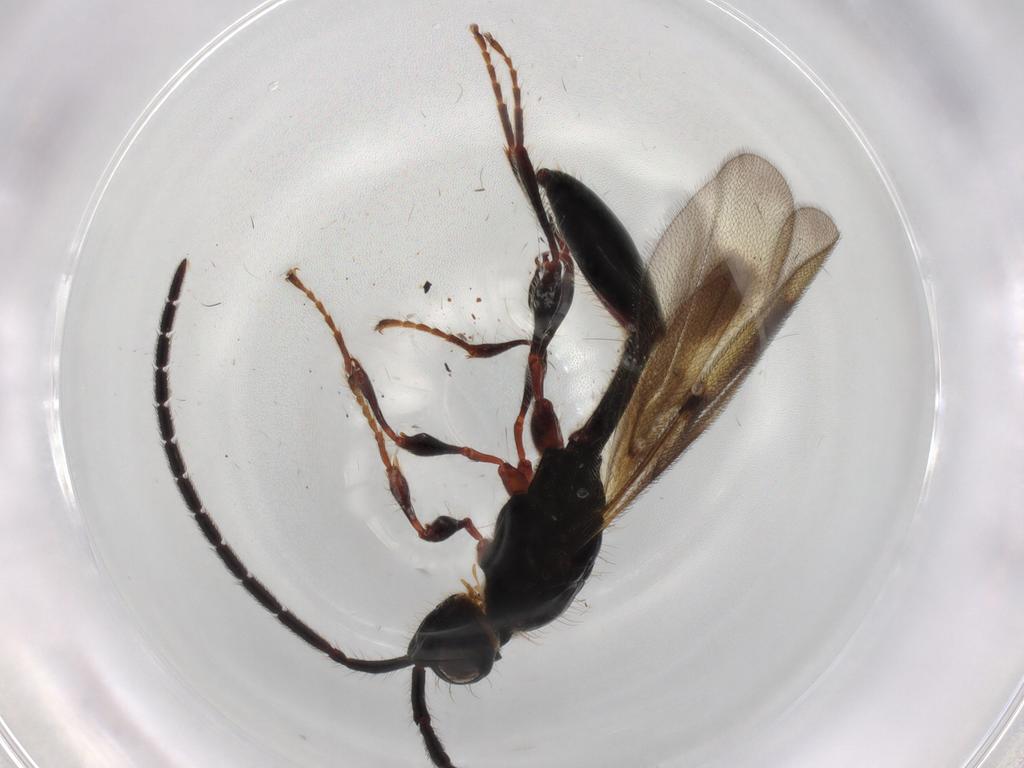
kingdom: Animalia
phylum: Arthropoda
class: Insecta
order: Hymenoptera
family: Diapriidae
